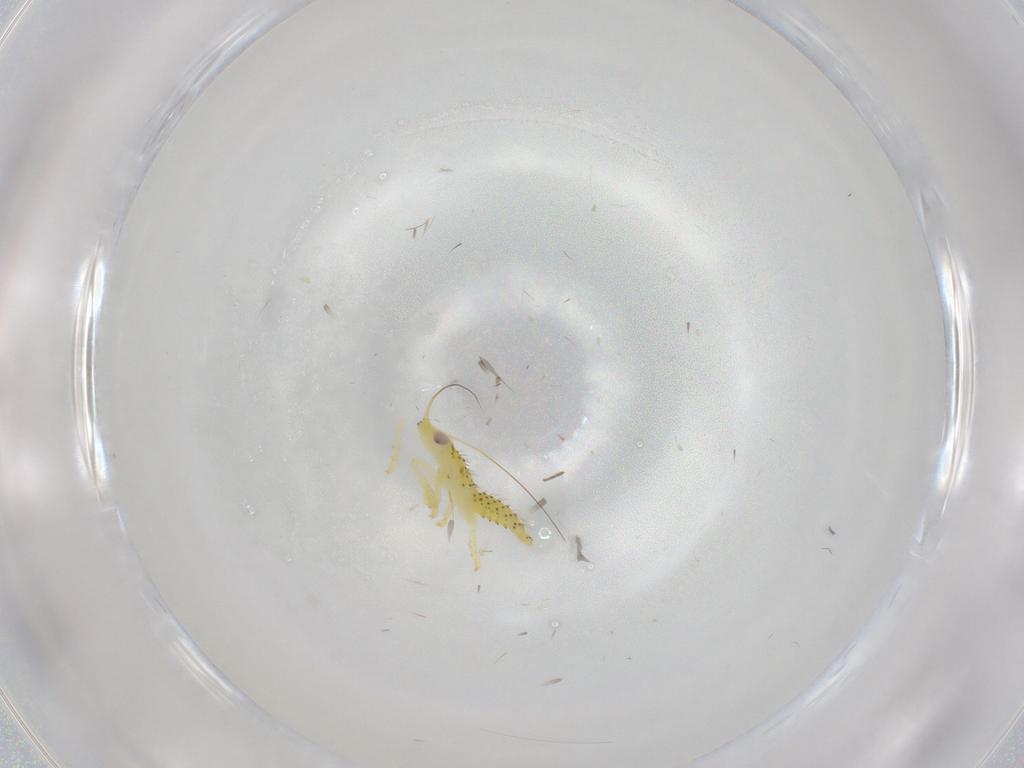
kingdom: Animalia
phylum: Arthropoda
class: Insecta
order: Hemiptera
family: Cicadellidae
